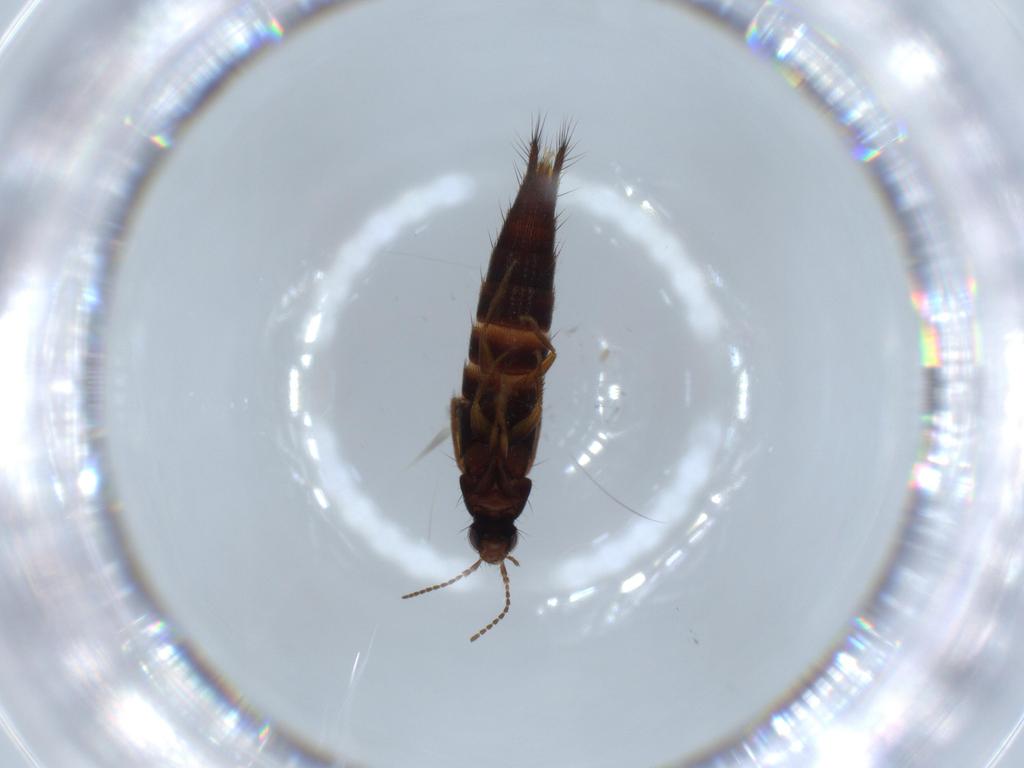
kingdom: Animalia
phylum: Arthropoda
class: Insecta
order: Coleoptera
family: Staphylinidae
